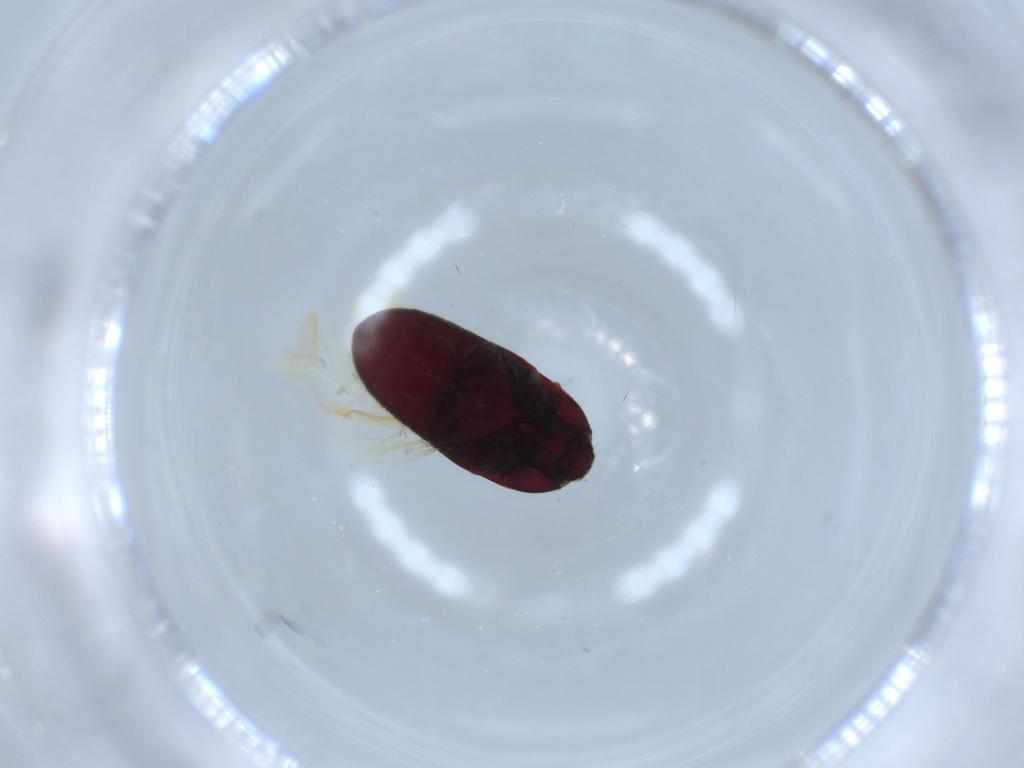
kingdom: Animalia
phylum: Arthropoda
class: Insecta
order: Coleoptera
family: Throscidae
